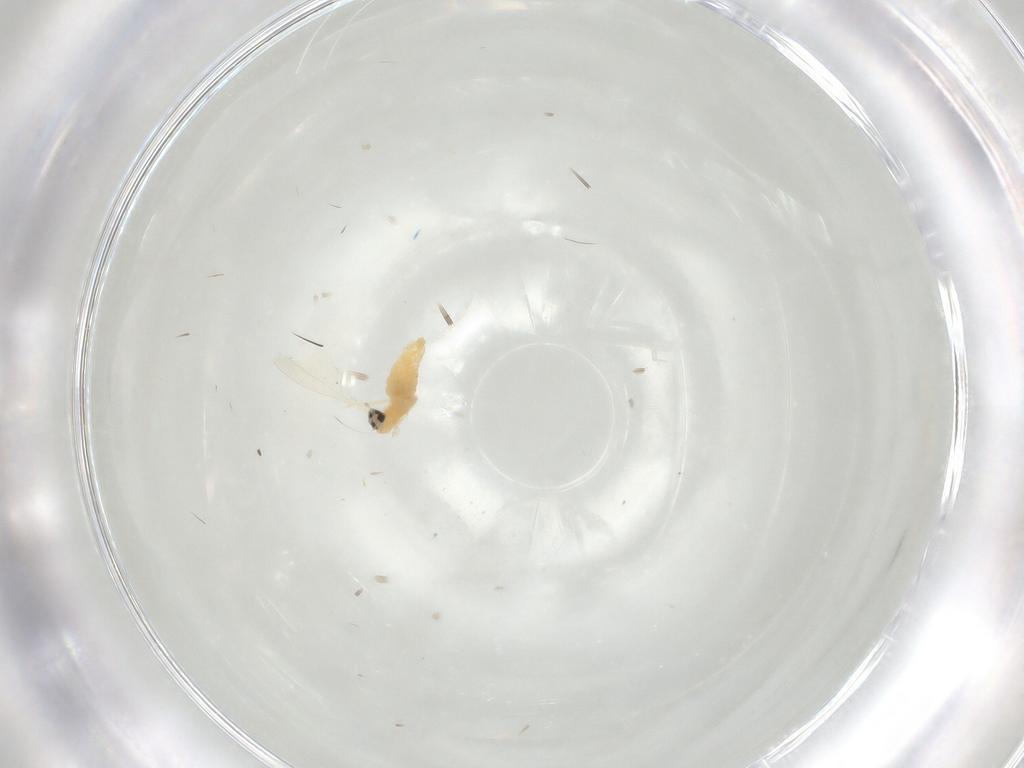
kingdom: Animalia
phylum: Arthropoda
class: Insecta
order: Diptera
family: Cecidomyiidae
